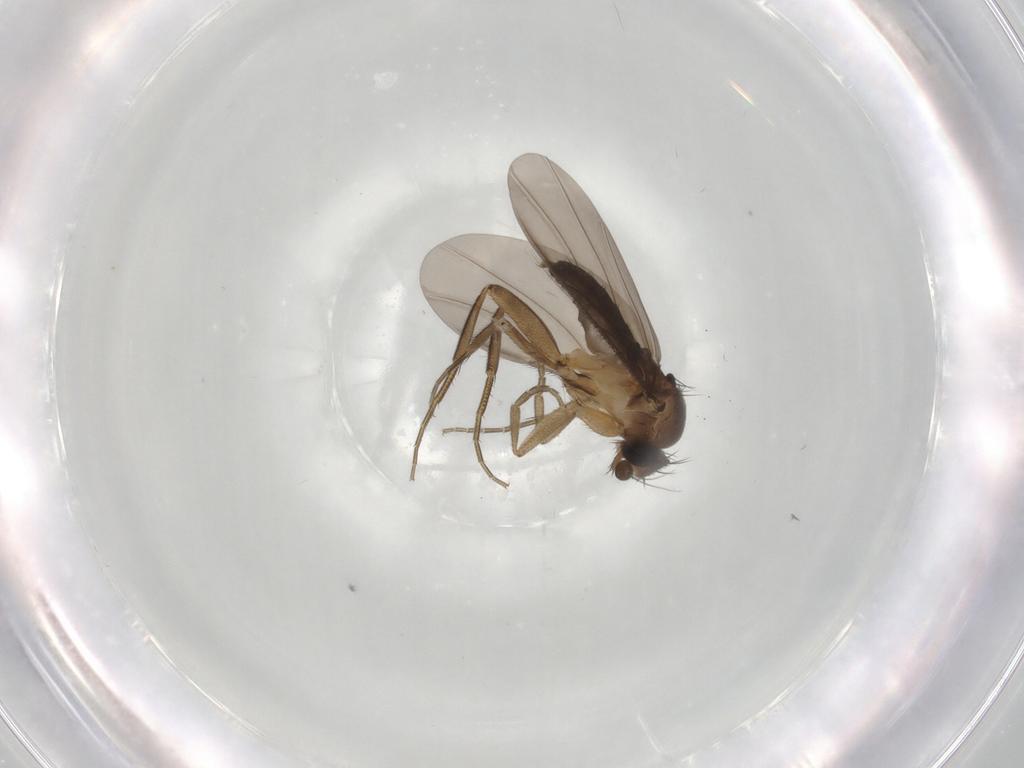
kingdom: Animalia
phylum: Arthropoda
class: Insecta
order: Diptera
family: Phoridae
